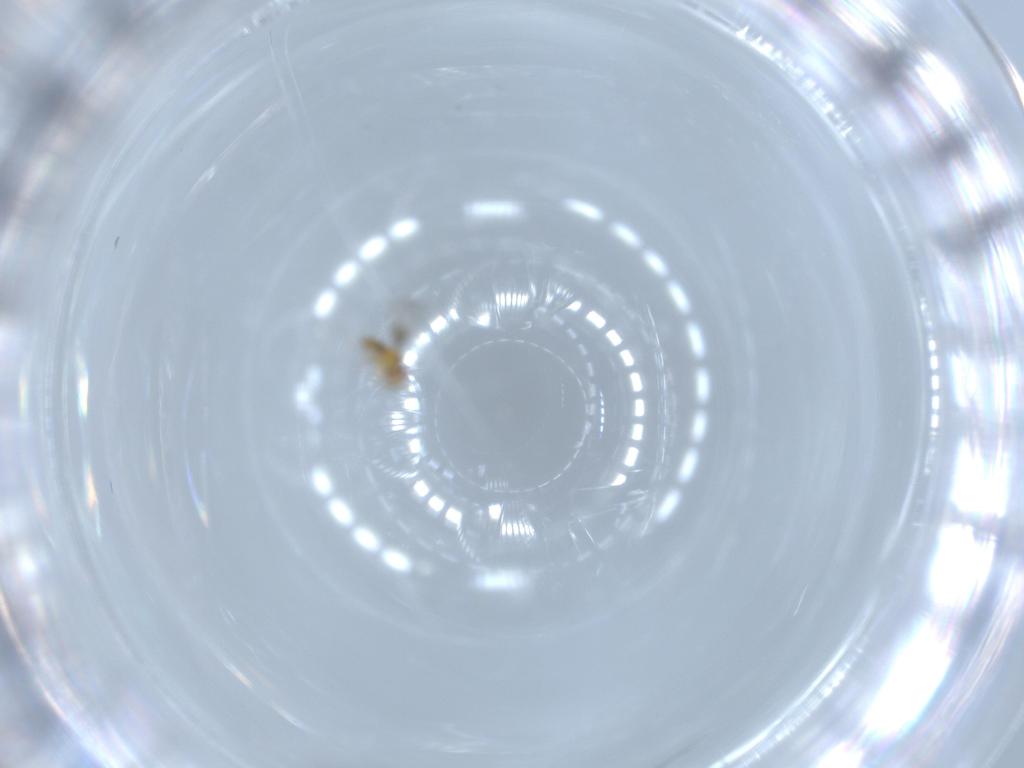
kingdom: Animalia
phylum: Arthropoda
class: Insecta
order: Hymenoptera
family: Trichogrammatidae
